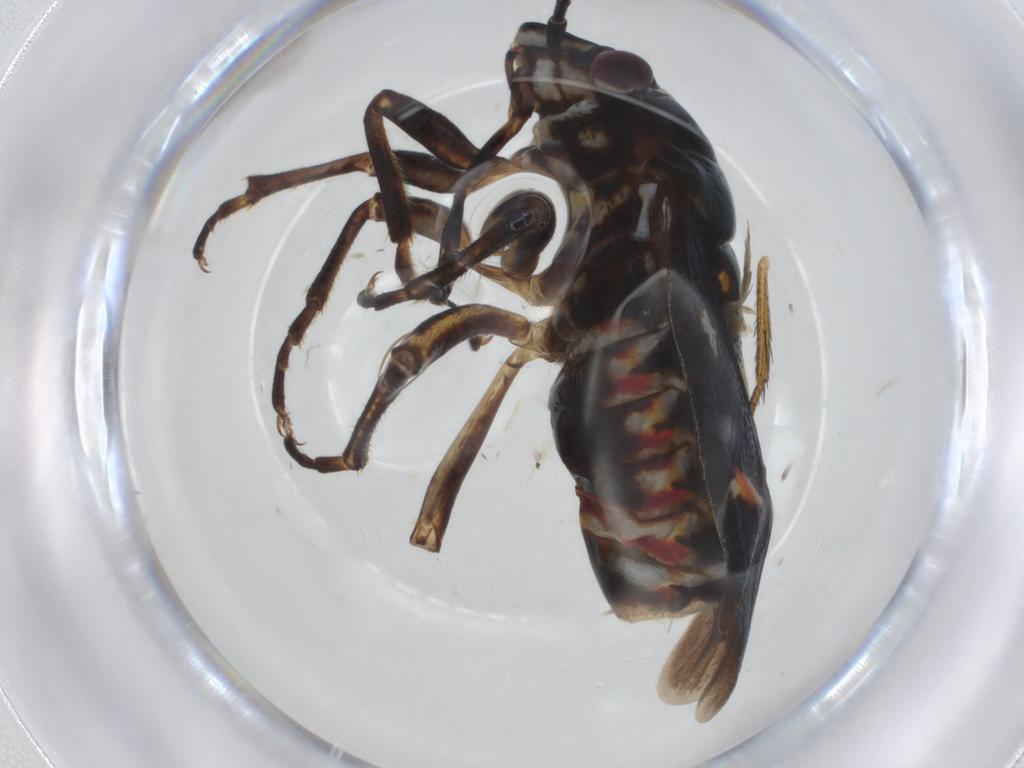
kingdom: Animalia
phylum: Arthropoda
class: Insecta
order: Hemiptera
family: Pentatomidae
